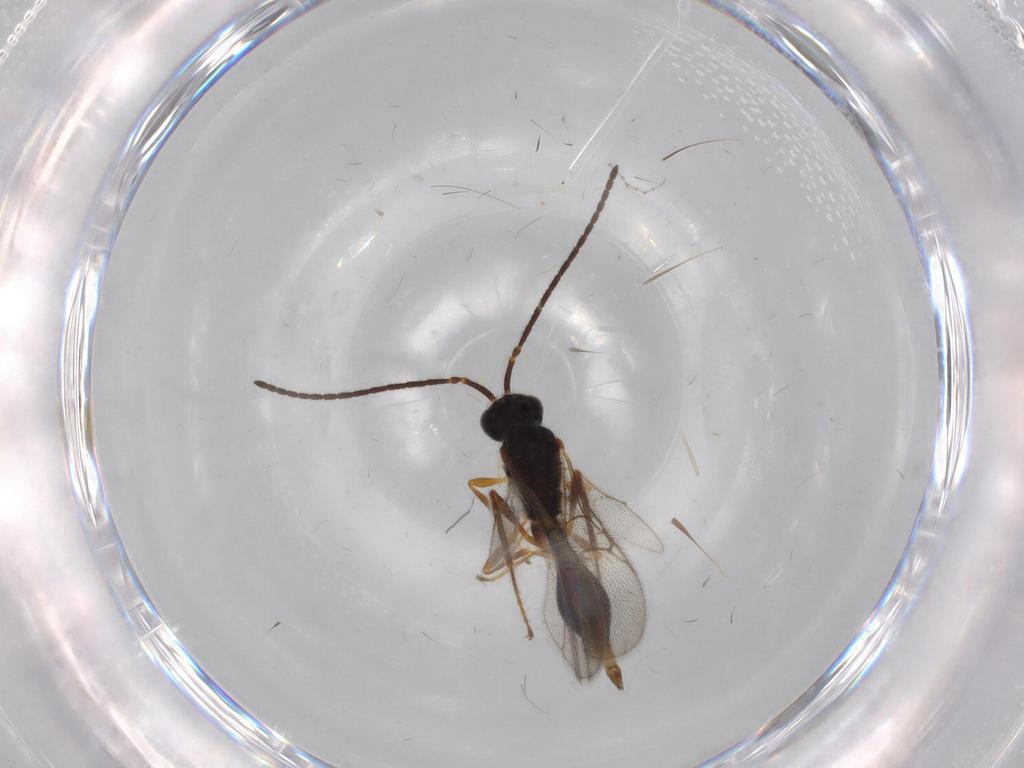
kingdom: Animalia
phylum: Arthropoda
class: Insecta
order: Hymenoptera
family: Diapriidae
